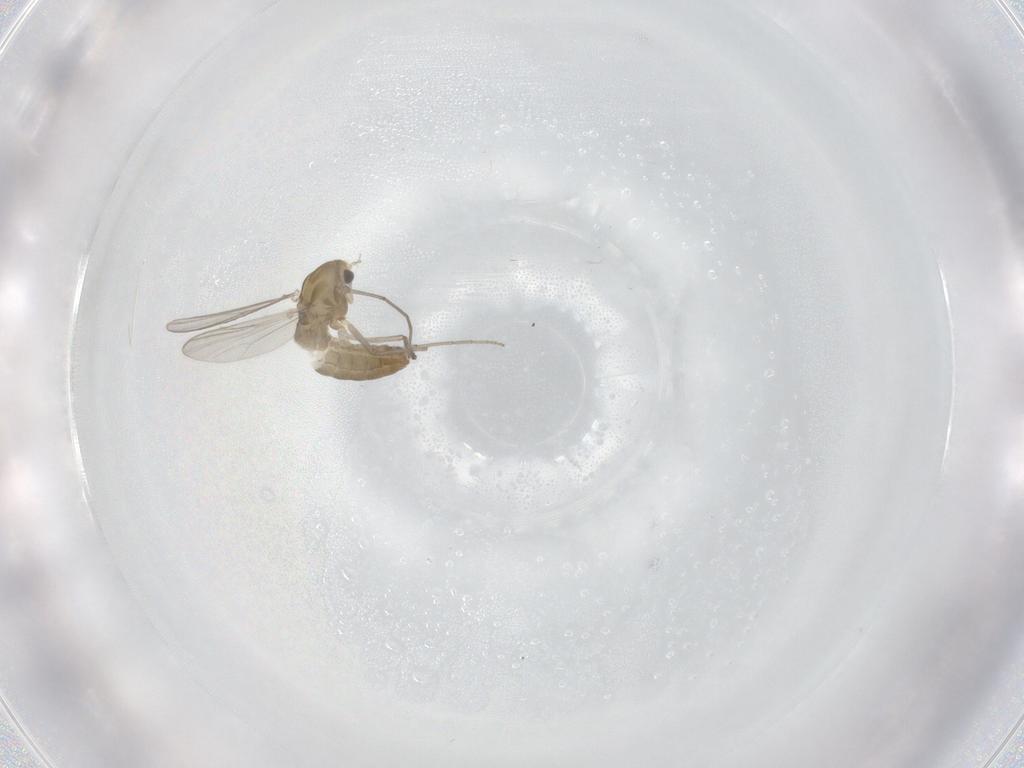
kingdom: Animalia
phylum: Arthropoda
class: Insecta
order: Diptera
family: Chironomidae
